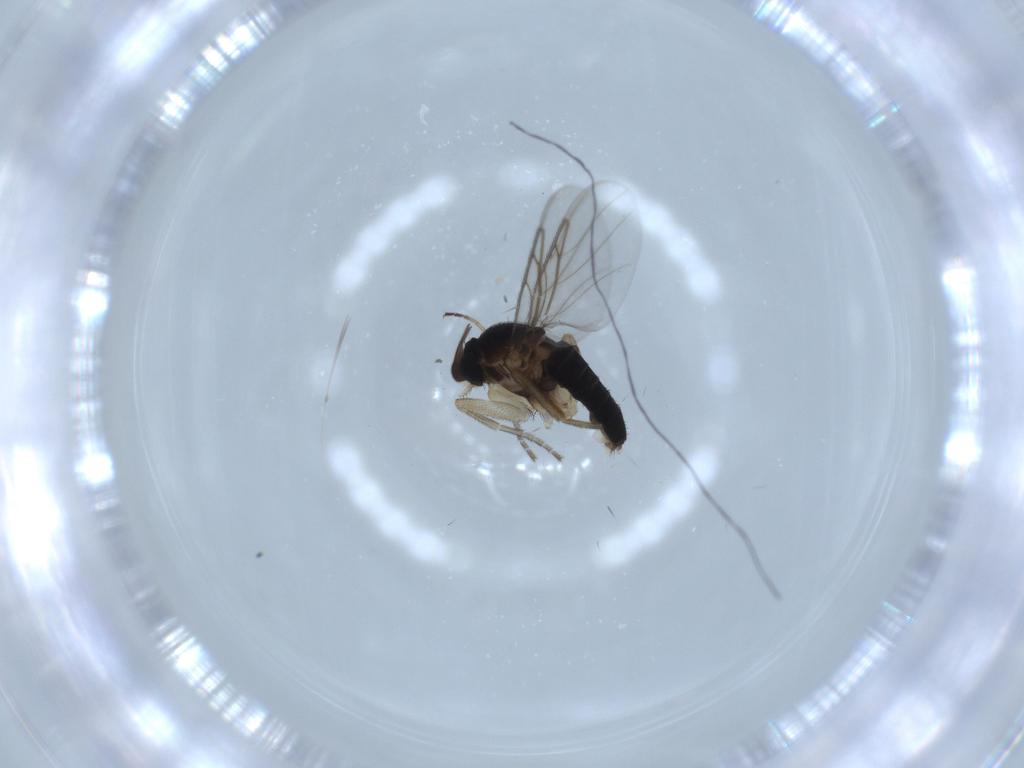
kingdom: Animalia
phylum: Arthropoda
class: Insecta
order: Diptera
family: Hybotidae
